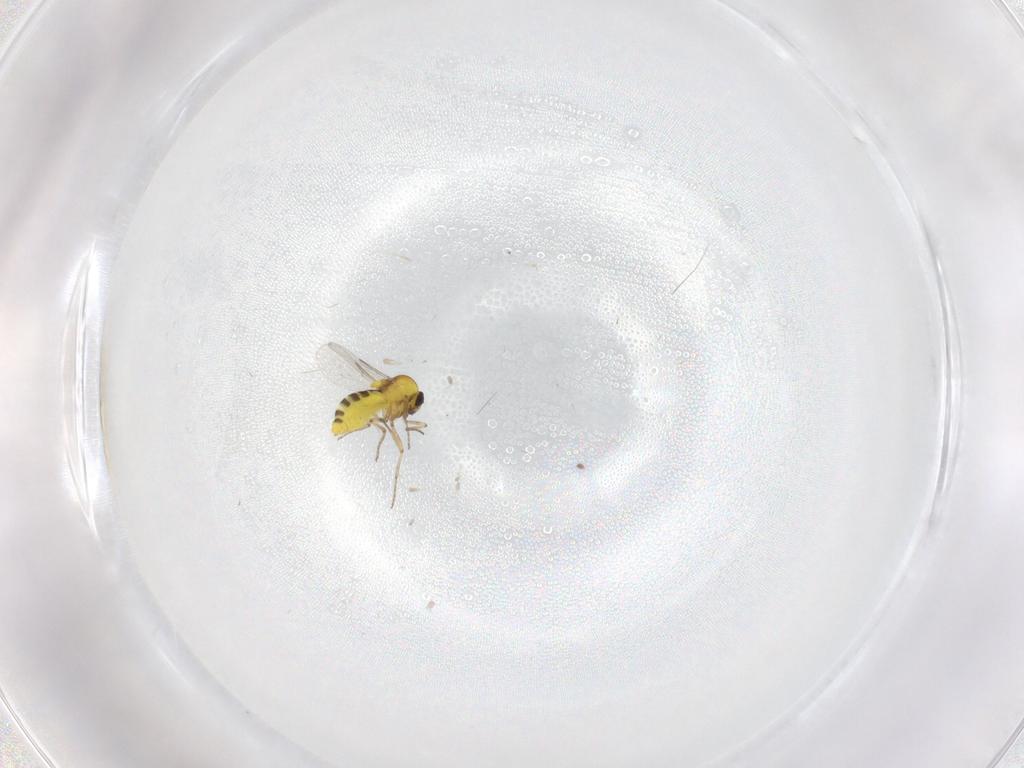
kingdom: Animalia
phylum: Arthropoda
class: Insecta
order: Diptera
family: Ceratopogonidae
